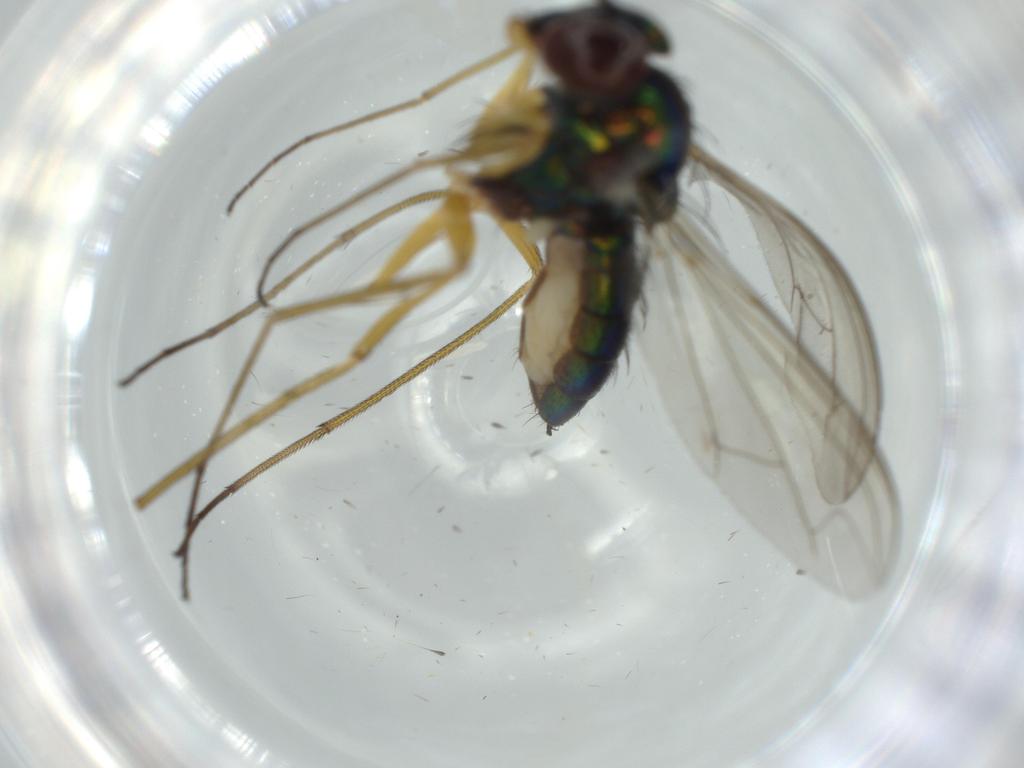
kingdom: Animalia
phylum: Arthropoda
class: Insecta
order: Diptera
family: Dolichopodidae
